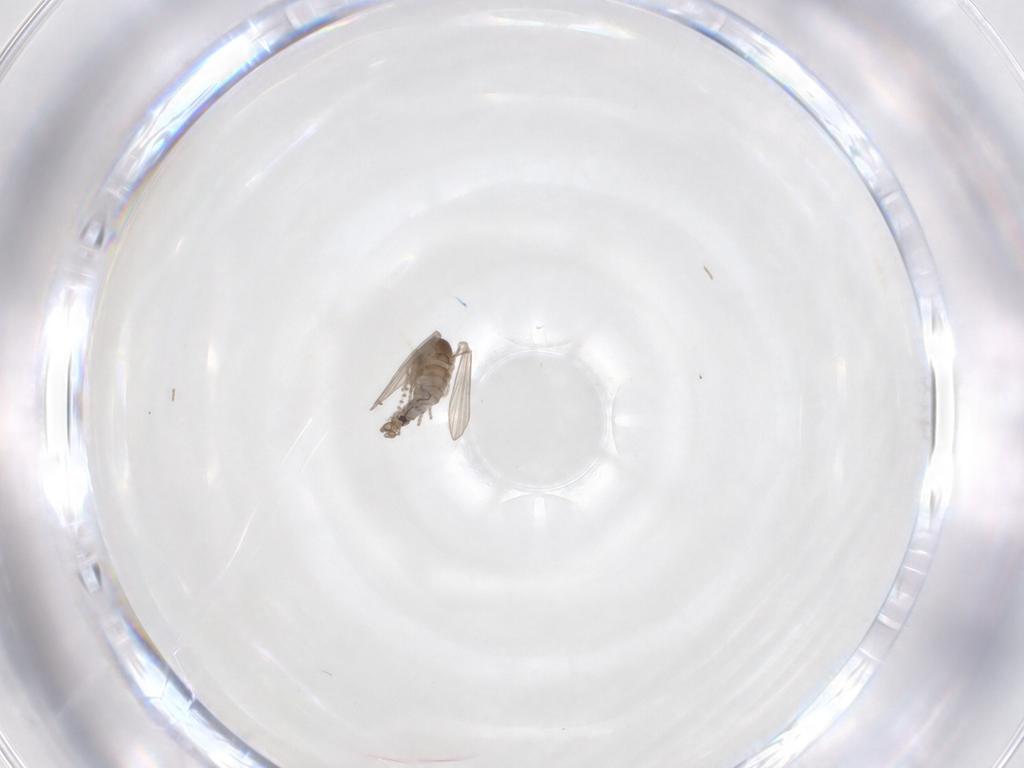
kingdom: Animalia
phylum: Arthropoda
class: Insecta
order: Diptera
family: Psychodidae
